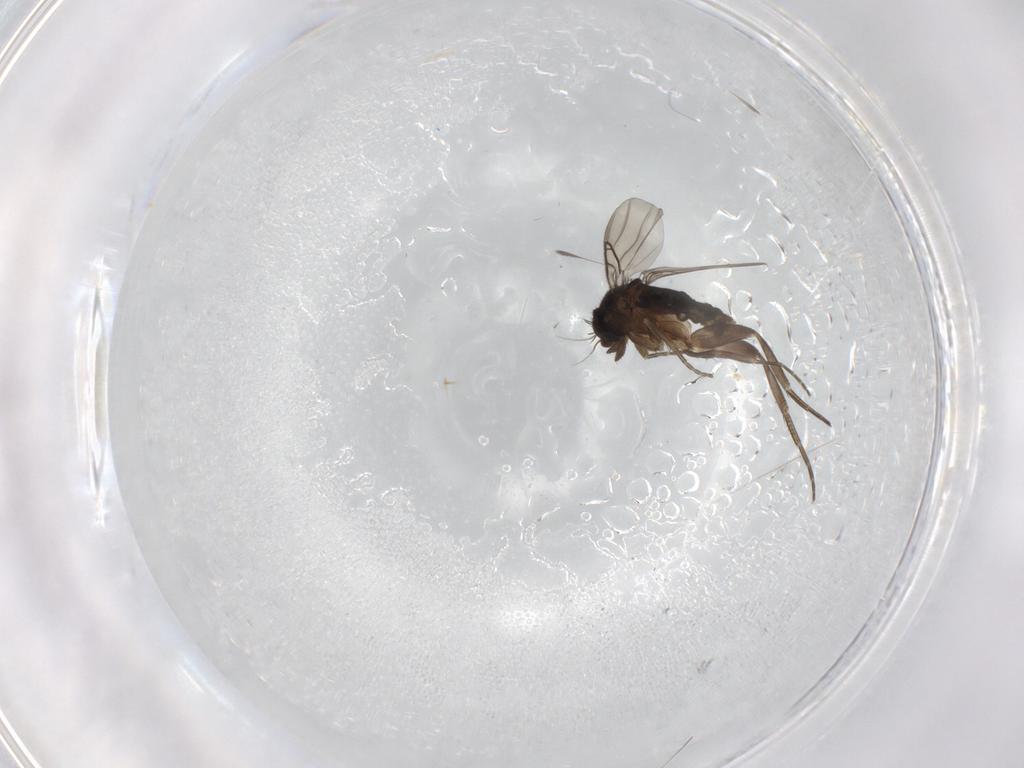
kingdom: Animalia
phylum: Arthropoda
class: Insecta
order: Diptera
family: Phoridae
